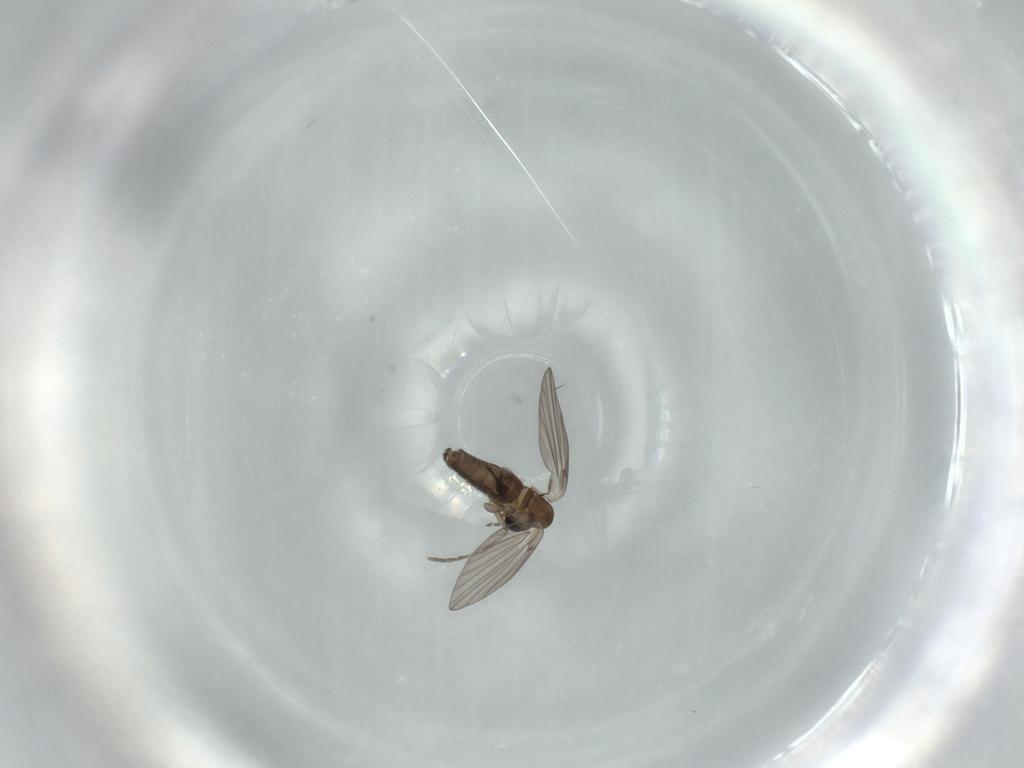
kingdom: Animalia
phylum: Arthropoda
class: Insecta
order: Diptera
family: Psychodidae
